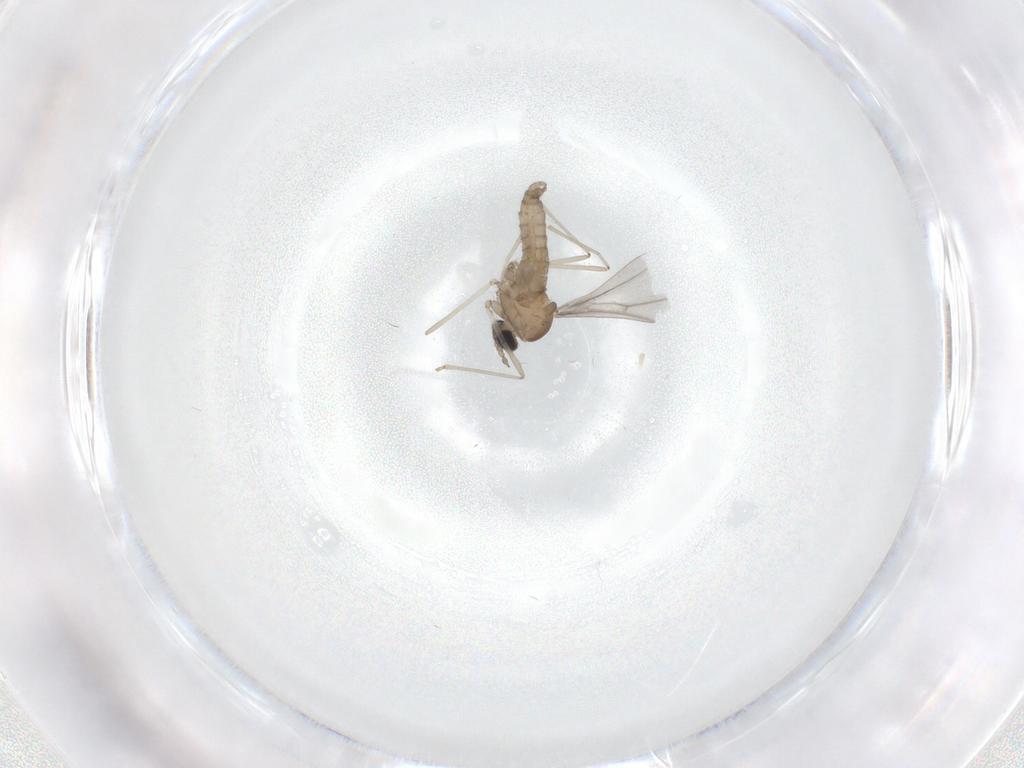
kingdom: Animalia
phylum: Arthropoda
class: Insecta
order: Diptera
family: Cecidomyiidae
